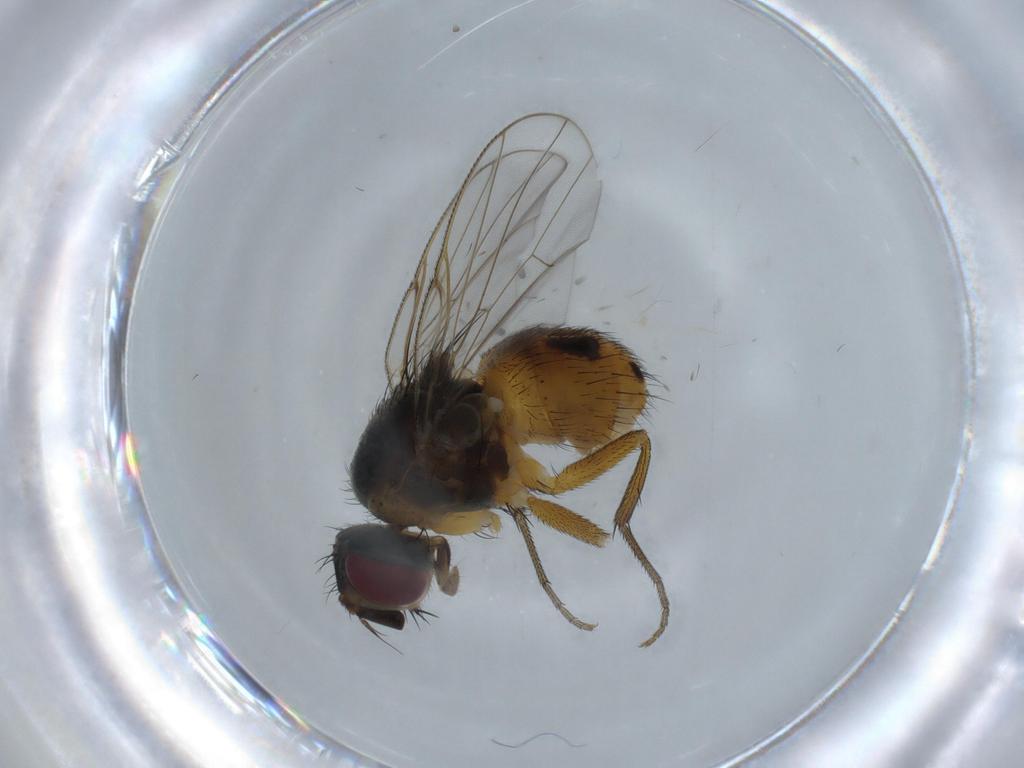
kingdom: Animalia
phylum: Arthropoda
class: Insecta
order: Diptera
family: Muscidae
